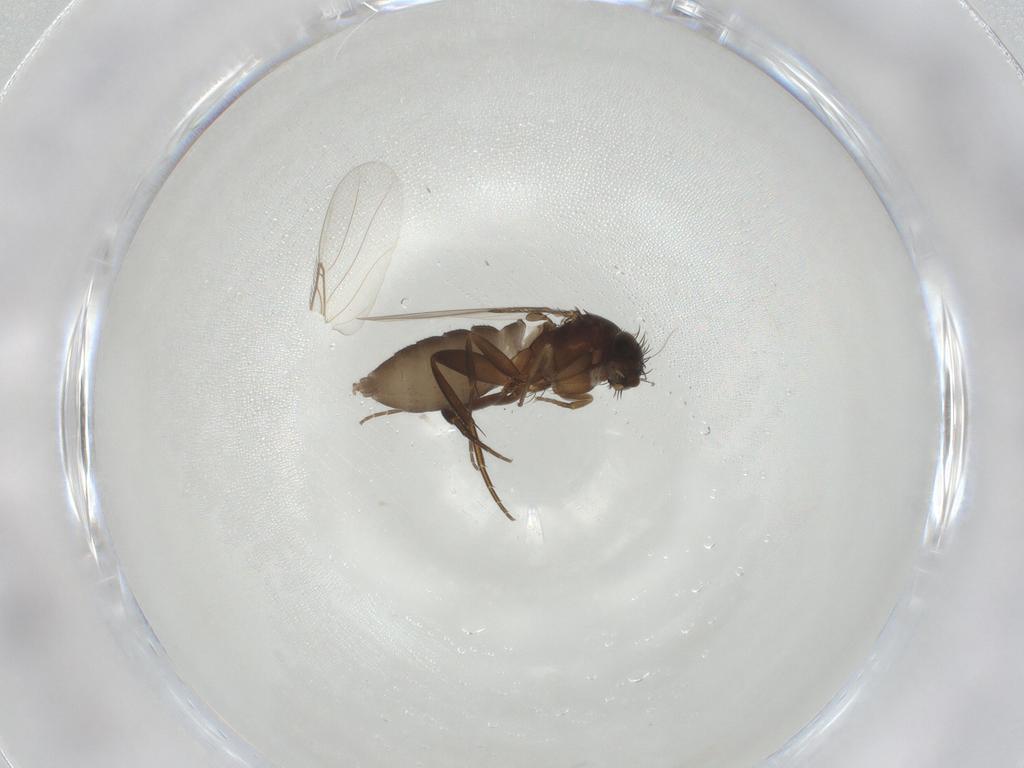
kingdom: Animalia
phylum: Arthropoda
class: Insecta
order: Diptera
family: Phoridae
